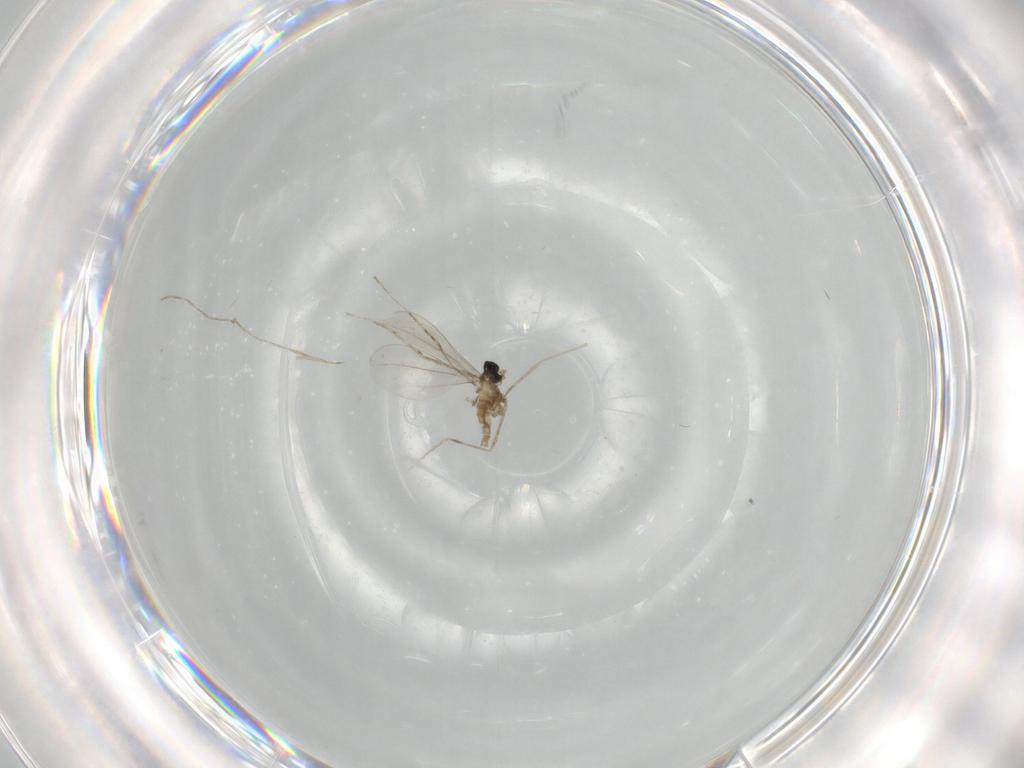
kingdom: Animalia
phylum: Arthropoda
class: Insecta
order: Diptera
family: Cecidomyiidae
